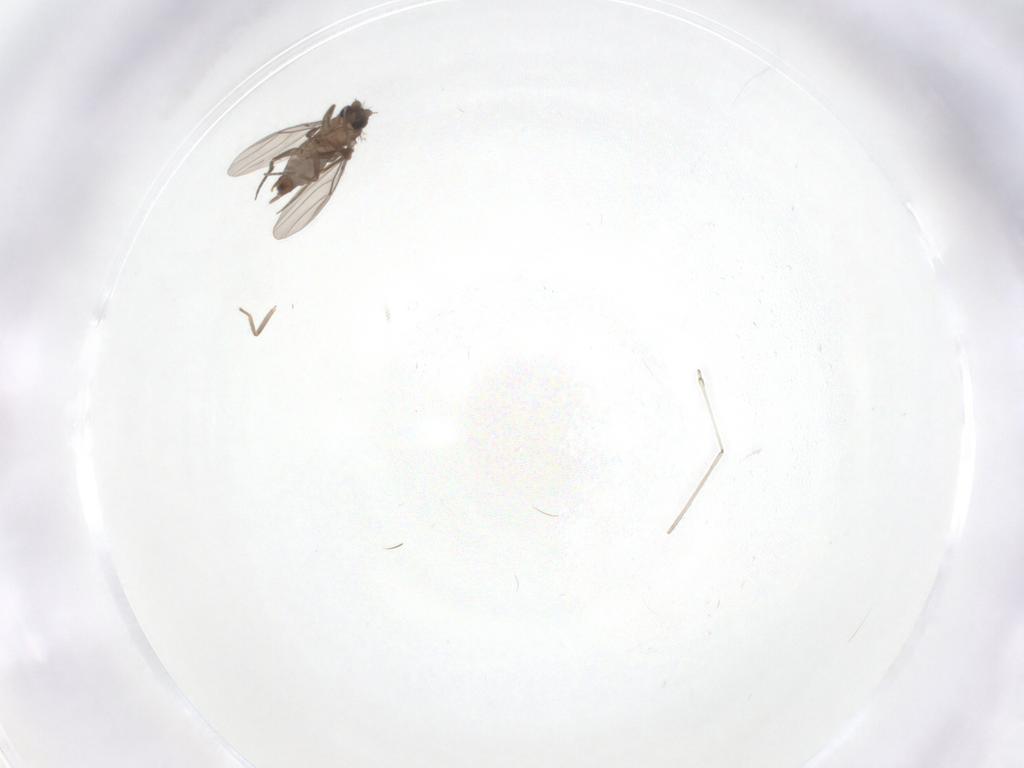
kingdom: Animalia
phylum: Arthropoda
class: Insecta
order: Diptera
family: Phoridae
